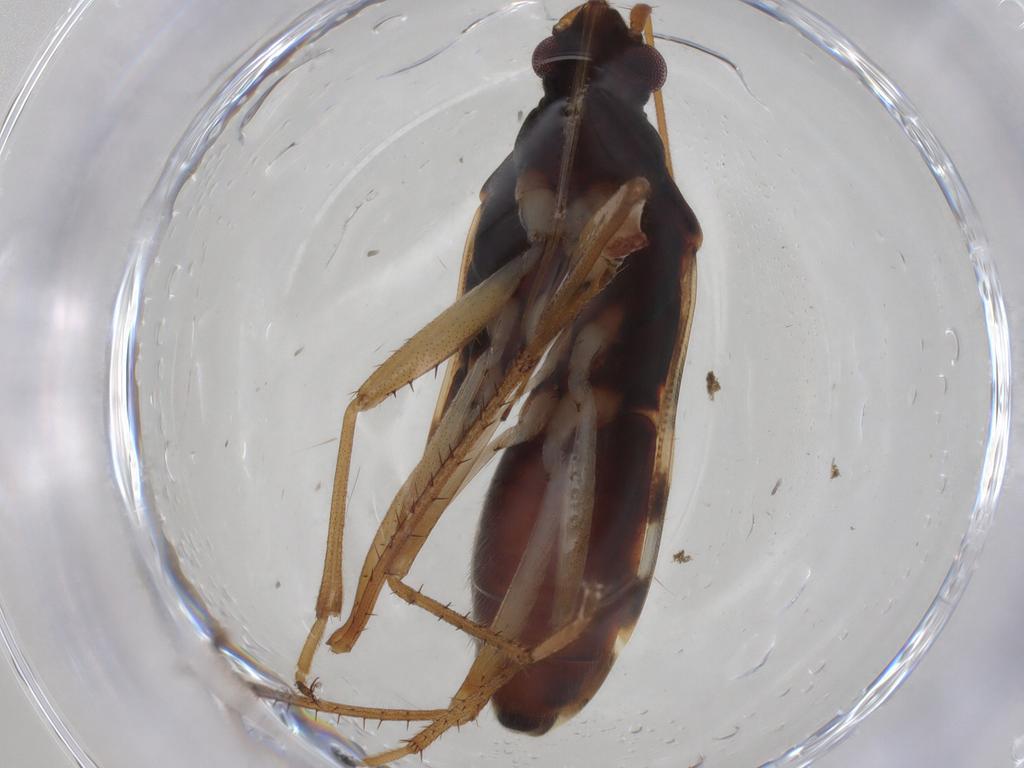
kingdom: Animalia
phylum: Arthropoda
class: Insecta
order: Hemiptera
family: Rhyparochromidae
